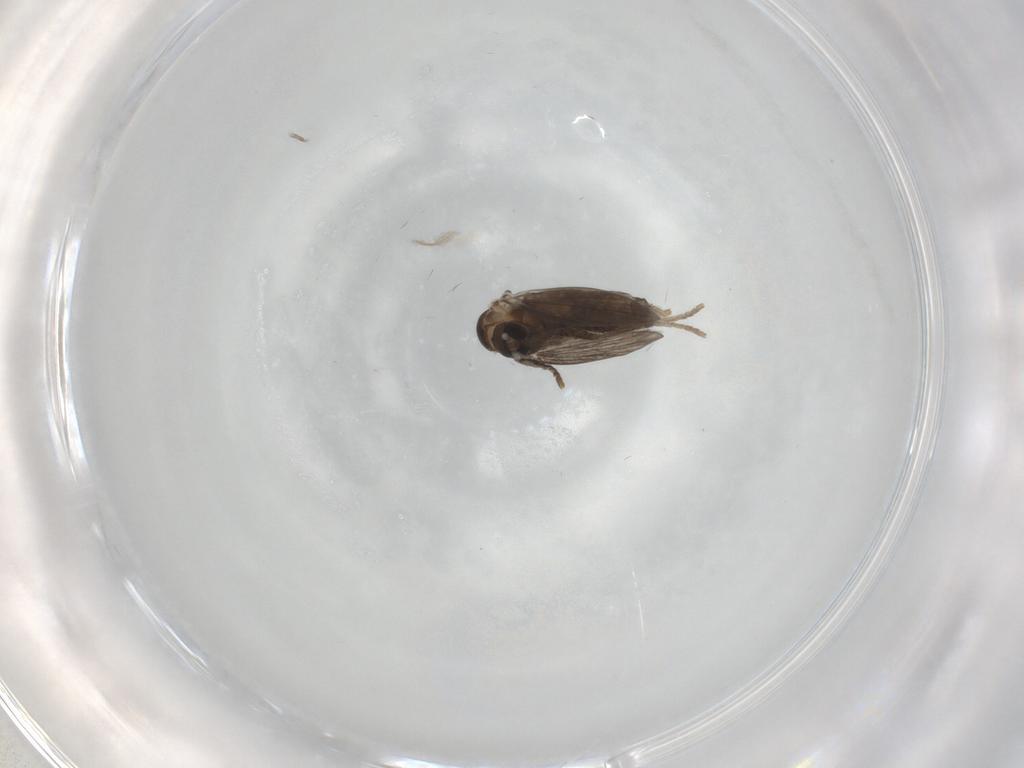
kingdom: Animalia
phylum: Arthropoda
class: Insecta
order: Diptera
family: Psychodidae
